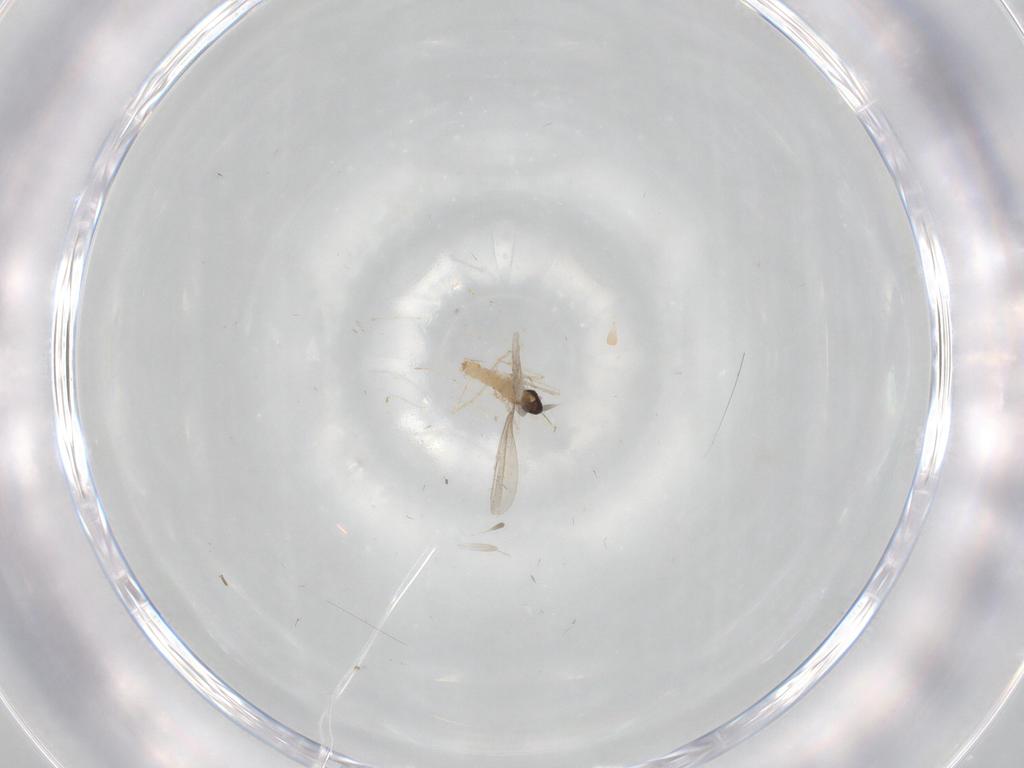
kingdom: Animalia
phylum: Arthropoda
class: Insecta
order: Diptera
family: Cecidomyiidae
